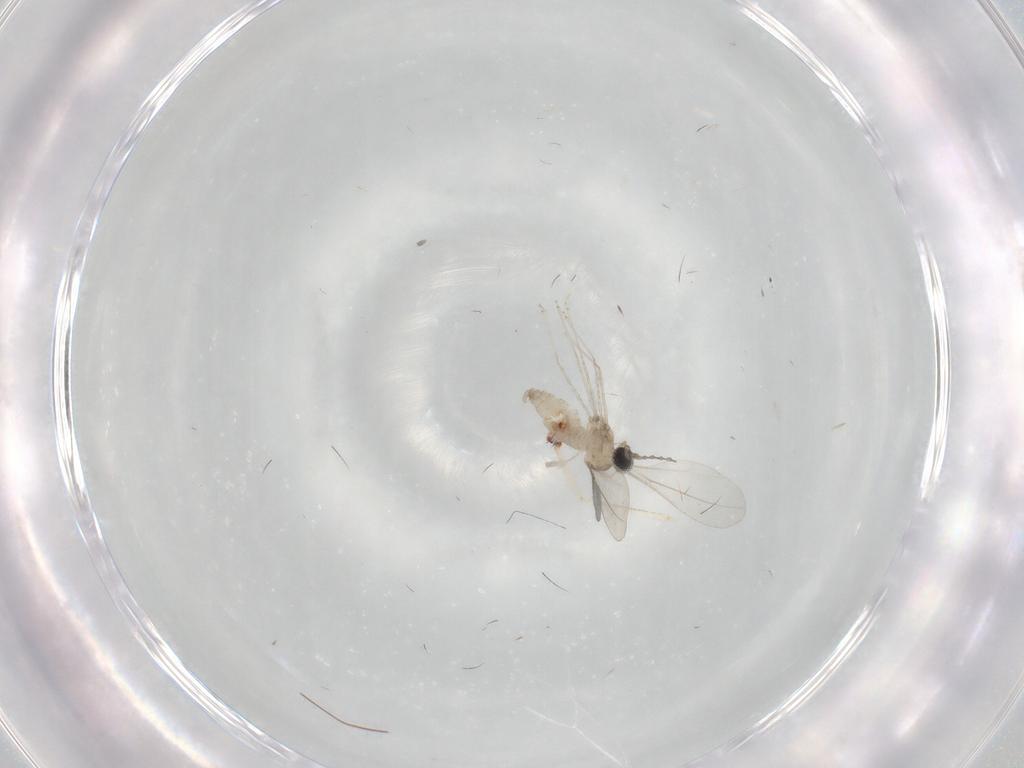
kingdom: Animalia
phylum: Arthropoda
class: Insecta
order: Diptera
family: Cecidomyiidae
